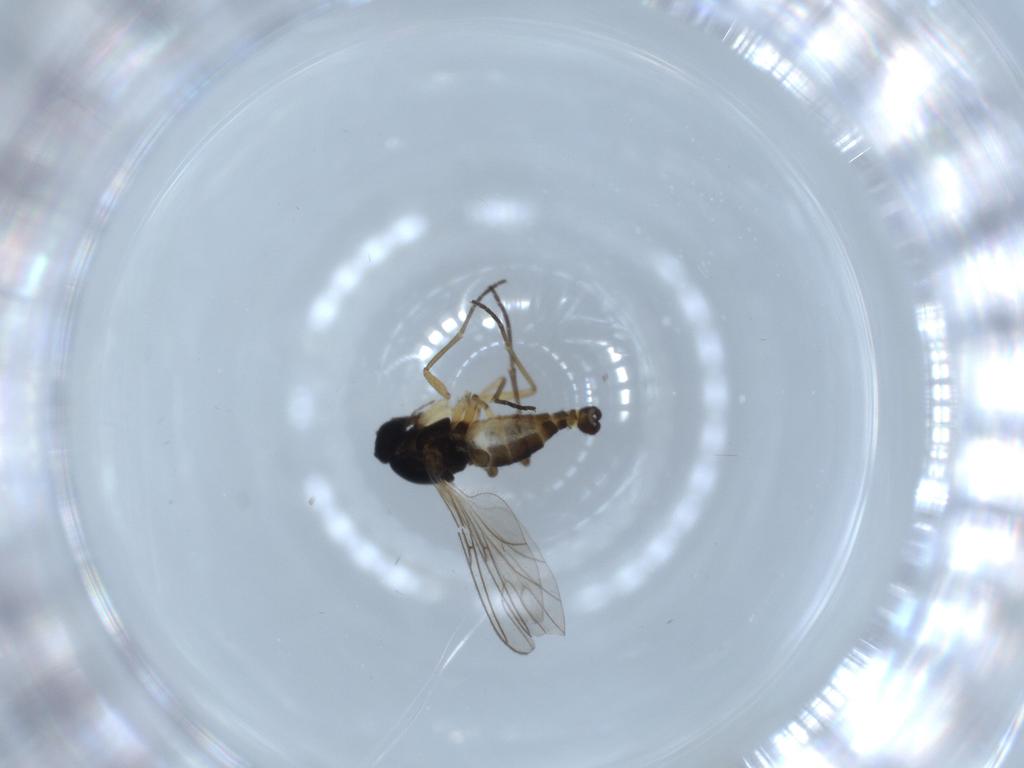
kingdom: Animalia
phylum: Arthropoda
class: Insecta
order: Diptera
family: Sciaridae
